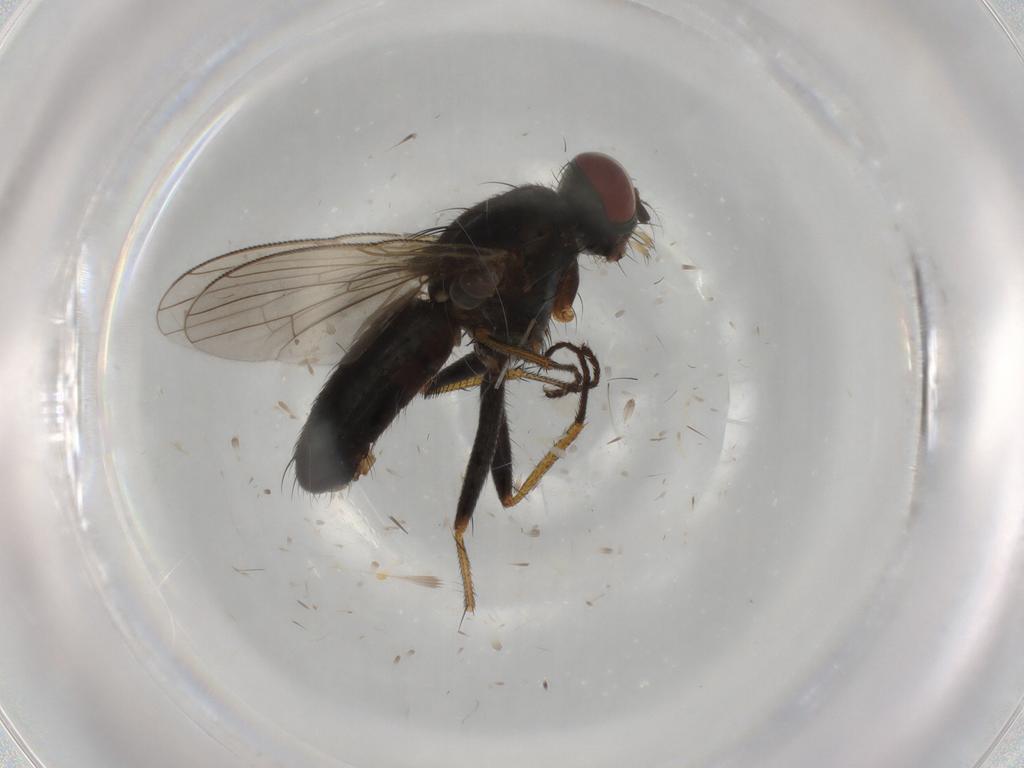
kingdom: Animalia
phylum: Arthropoda
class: Insecta
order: Diptera
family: Muscidae
